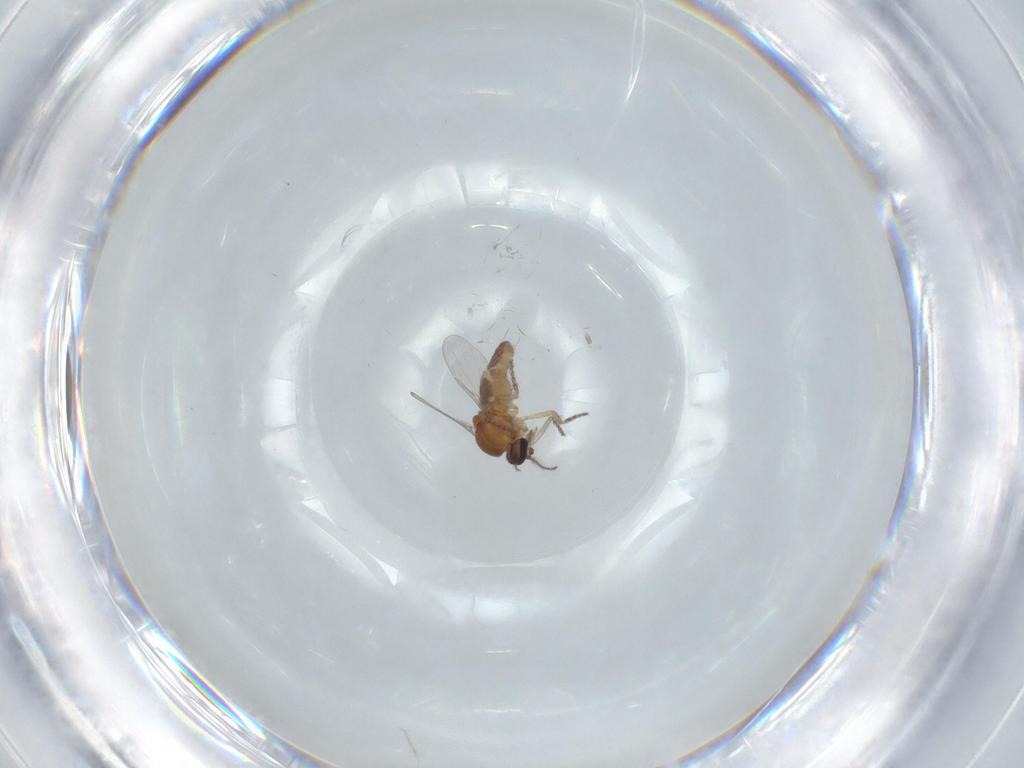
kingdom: Animalia
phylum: Arthropoda
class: Insecta
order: Diptera
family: Ceratopogonidae
